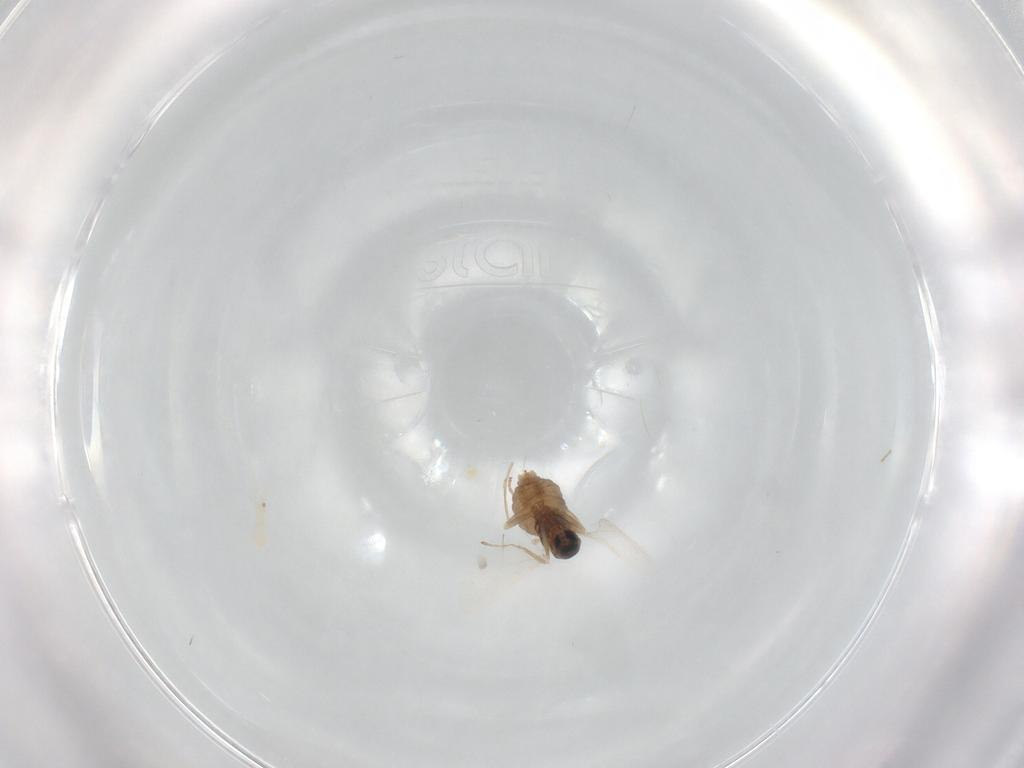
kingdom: Animalia
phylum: Arthropoda
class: Insecta
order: Diptera
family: Cecidomyiidae
